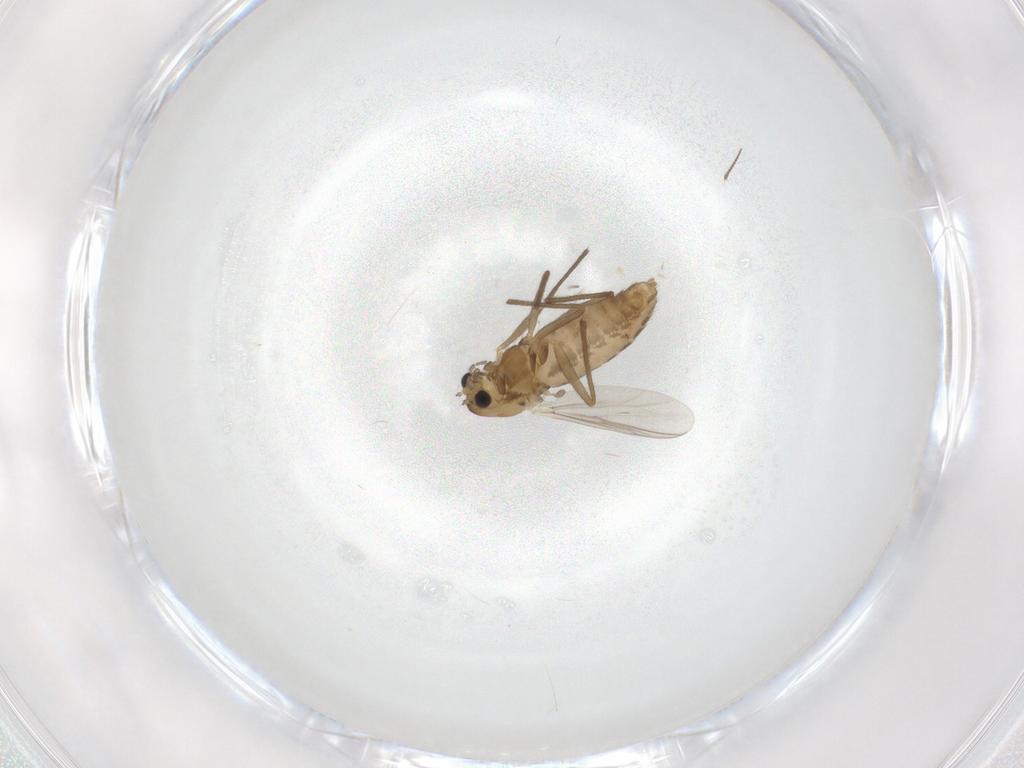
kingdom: Animalia
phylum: Arthropoda
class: Insecta
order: Diptera
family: Chironomidae
